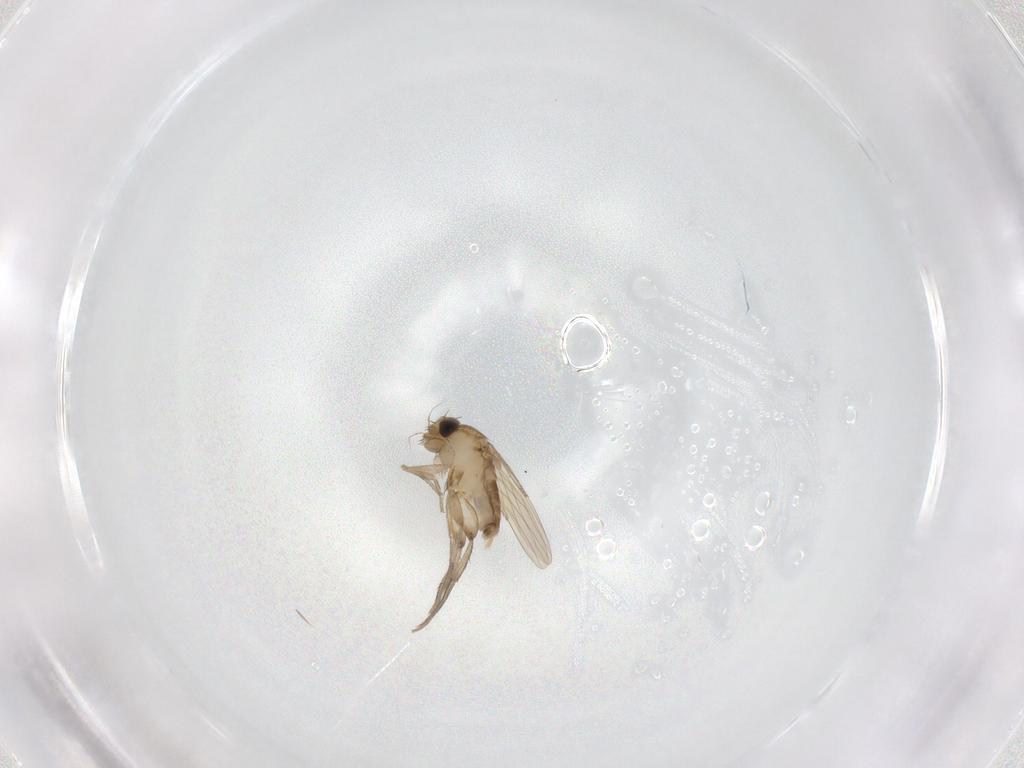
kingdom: Animalia
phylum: Arthropoda
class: Insecta
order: Diptera
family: Phoridae
